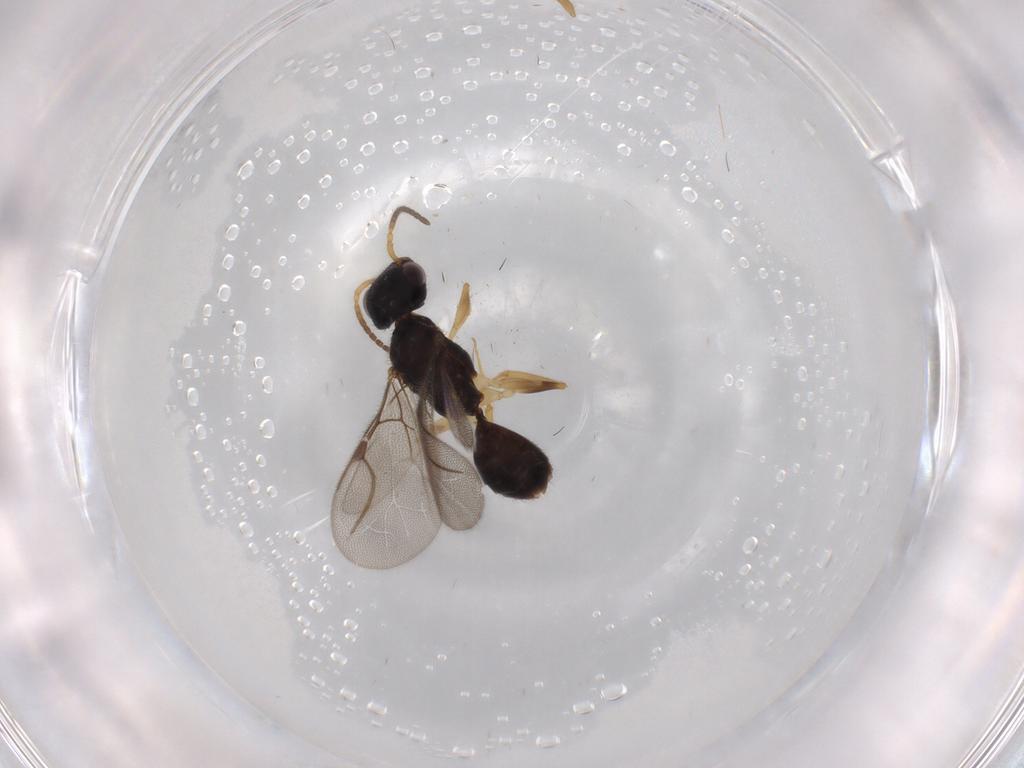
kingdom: Animalia
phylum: Arthropoda
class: Insecta
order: Hymenoptera
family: Bethylidae
